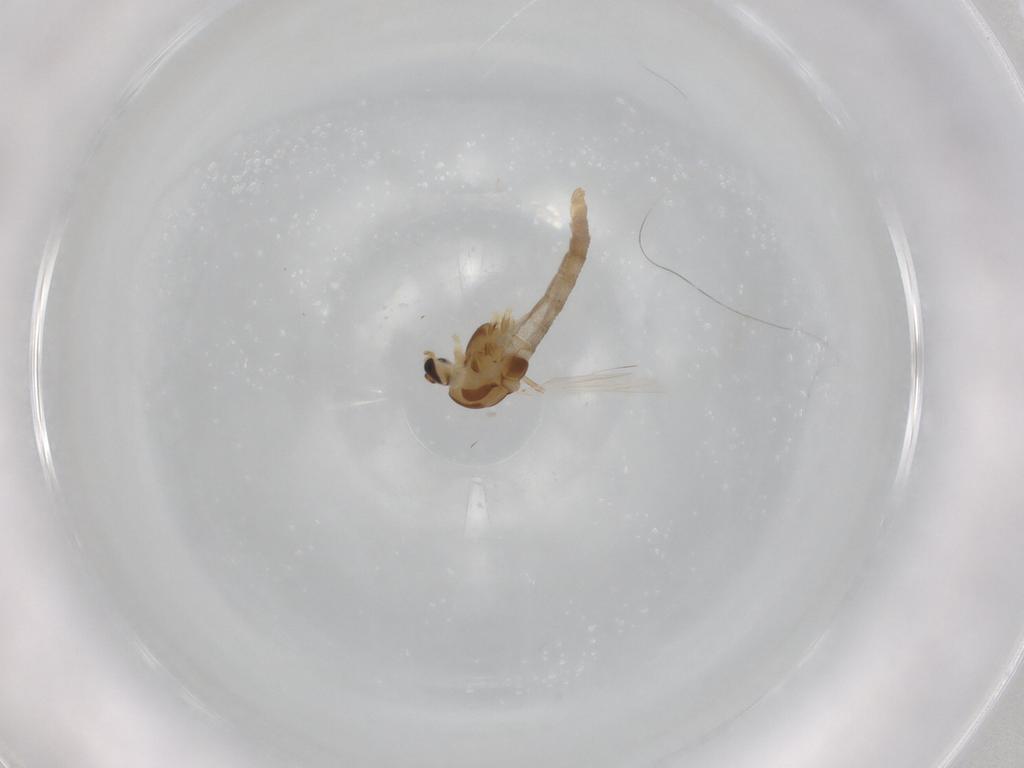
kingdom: Animalia
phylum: Arthropoda
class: Insecta
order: Diptera
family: Chironomidae
